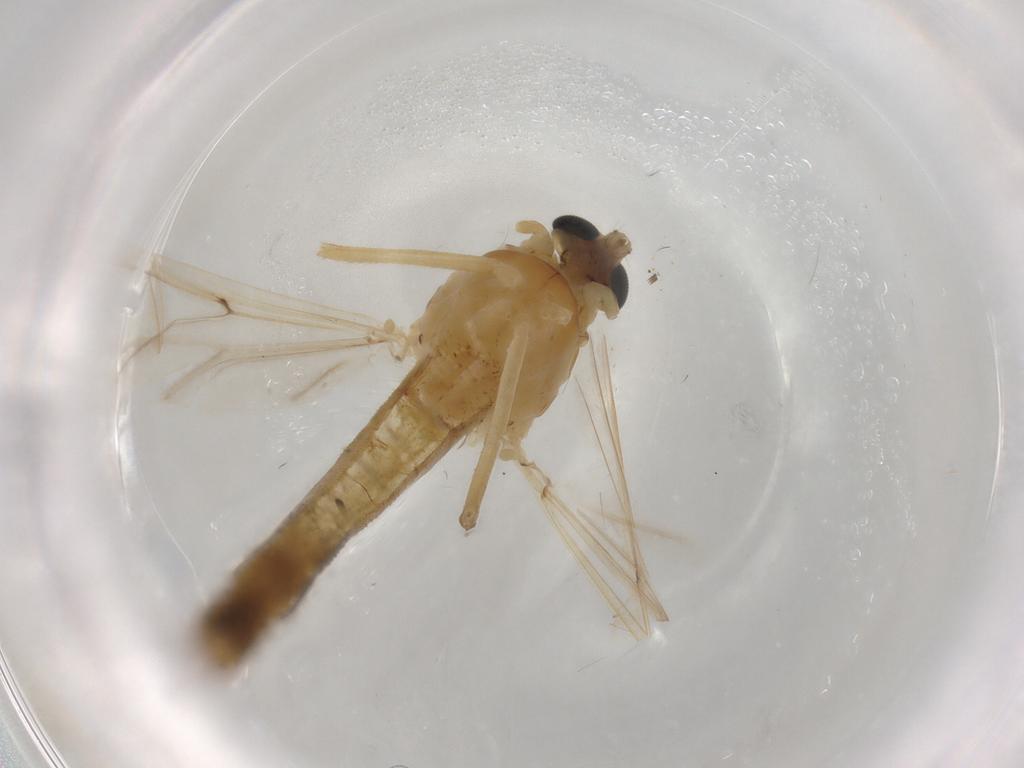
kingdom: Animalia
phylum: Arthropoda
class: Insecta
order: Diptera
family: Chironomidae
